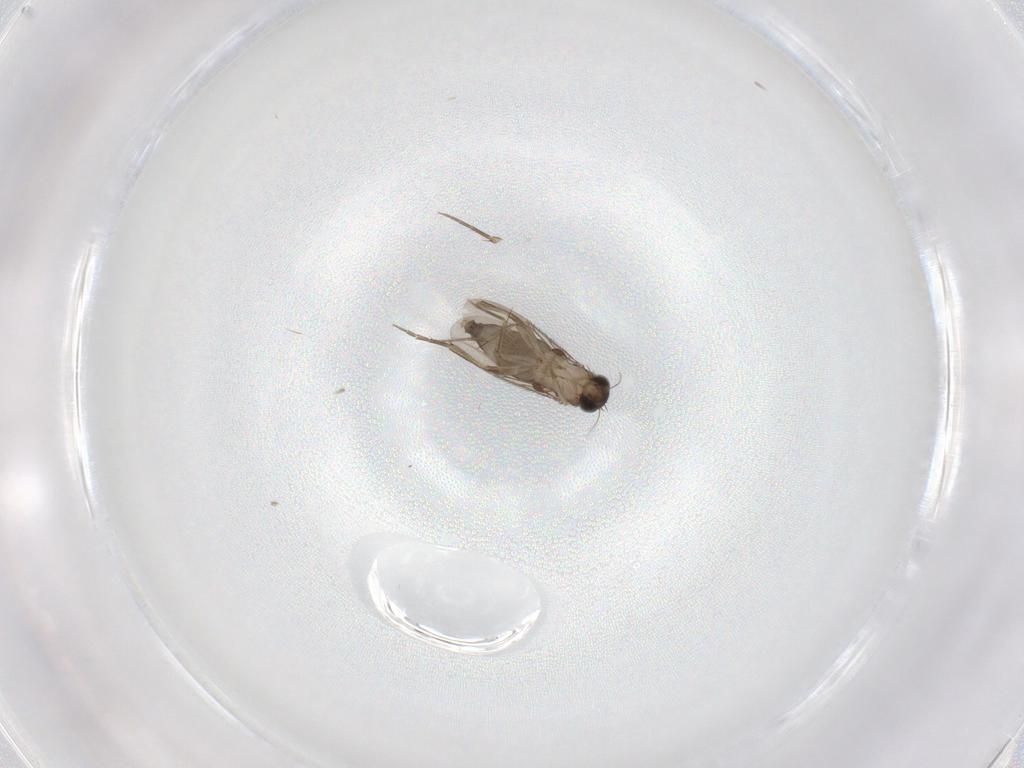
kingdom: Animalia
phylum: Arthropoda
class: Insecta
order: Diptera
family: Phoridae
